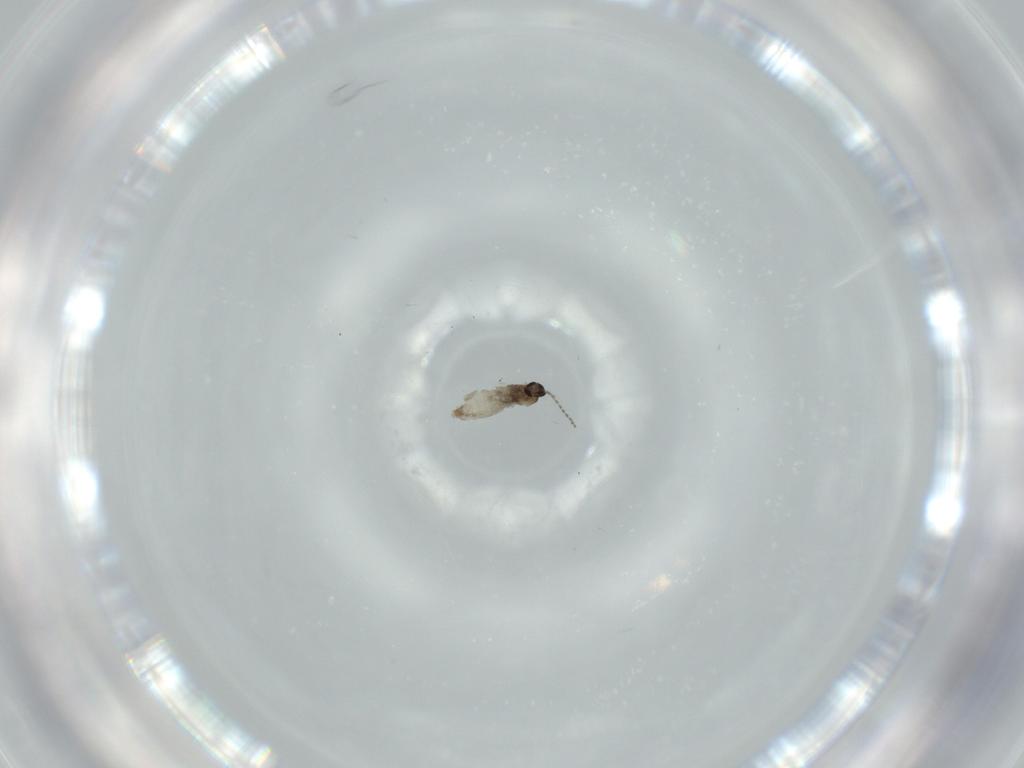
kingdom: Animalia
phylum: Arthropoda
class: Insecta
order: Diptera
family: Cecidomyiidae
